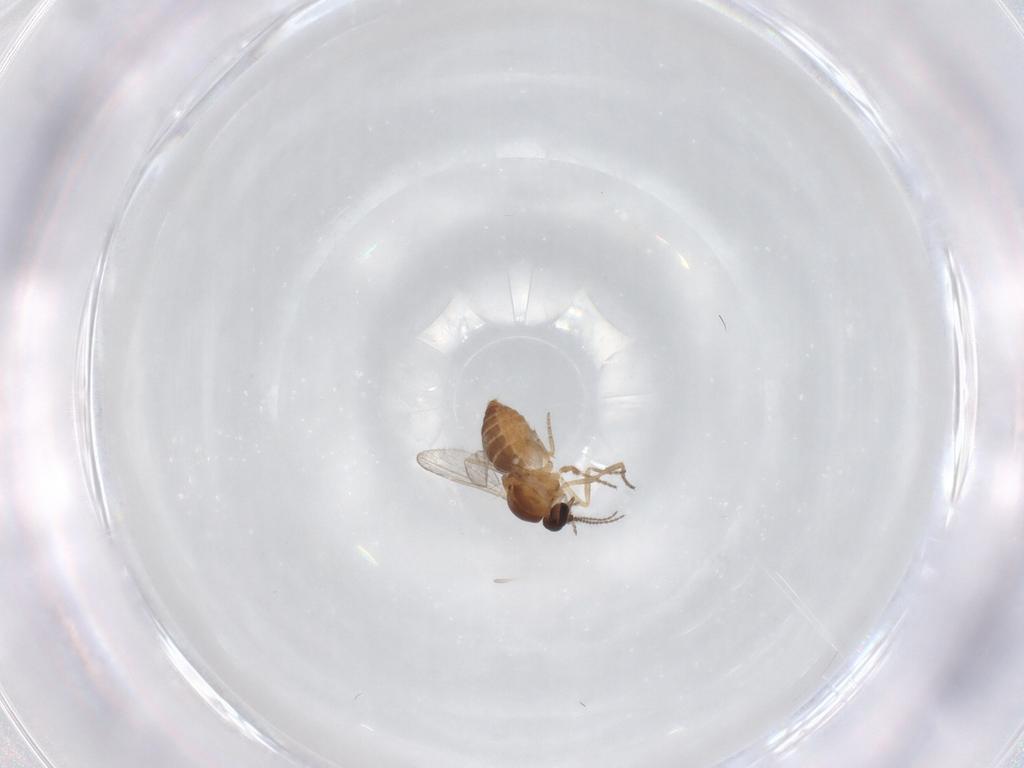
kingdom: Animalia
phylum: Arthropoda
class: Insecta
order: Diptera
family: Ceratopogonidae
